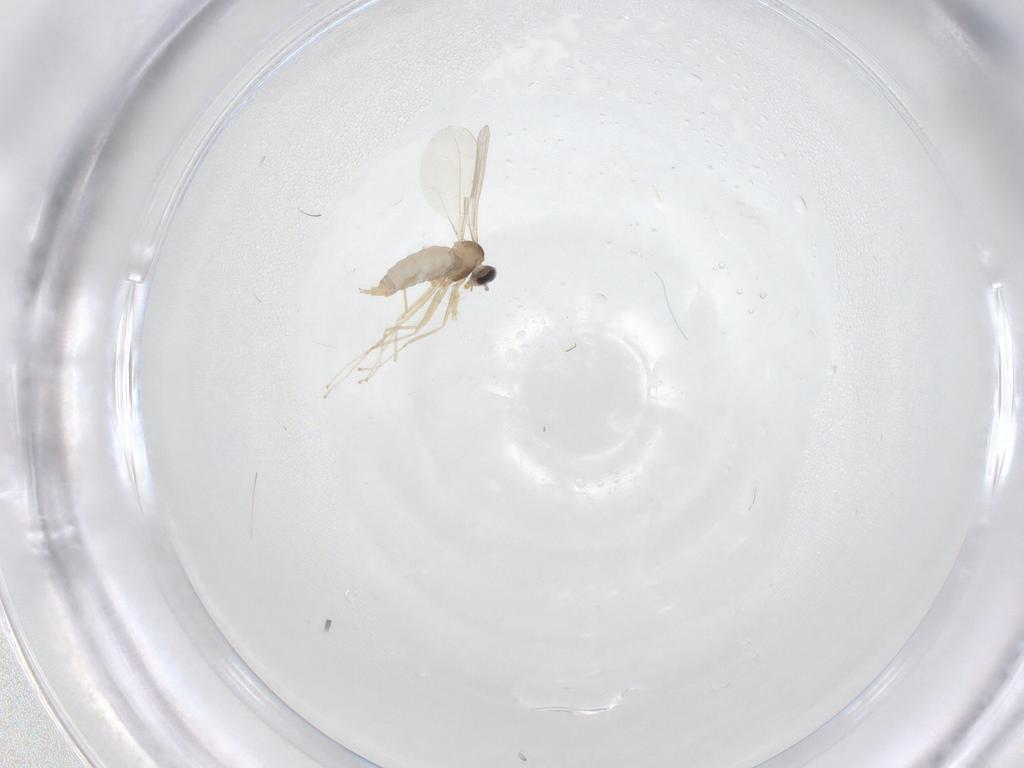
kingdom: Animalia
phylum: Arthropoda
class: Insecta
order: Diptera
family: Cecidomyiidae
